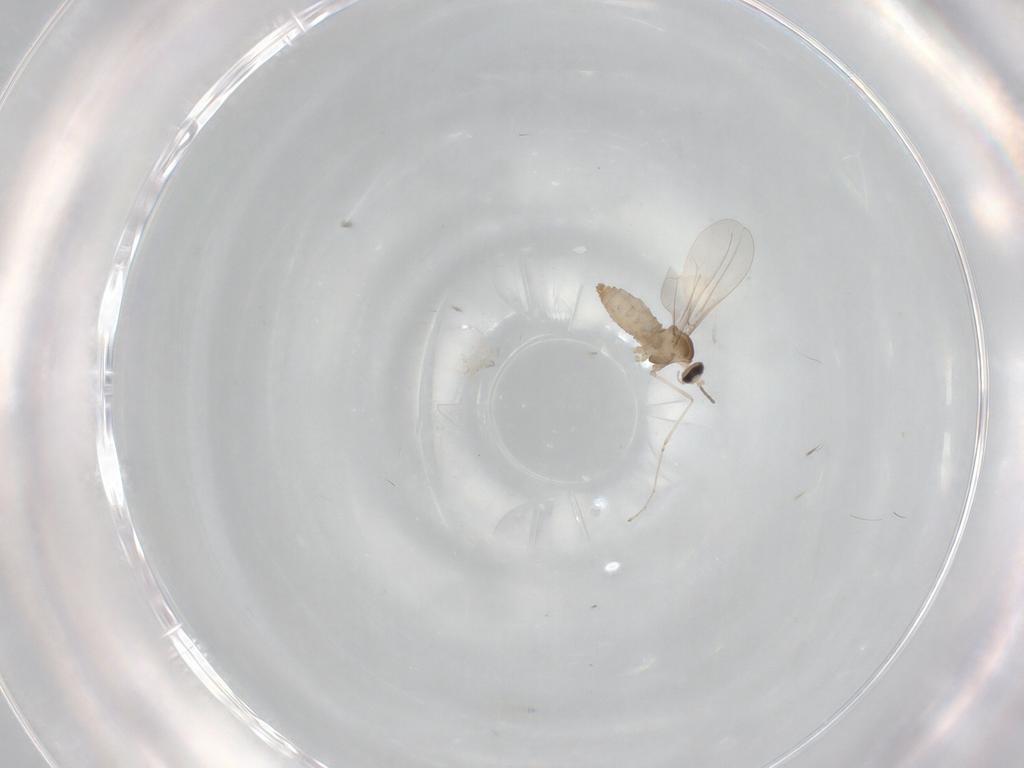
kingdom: Animalia
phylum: Arthropoda
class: Insecta
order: Diptera
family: Cecidomyiidae
